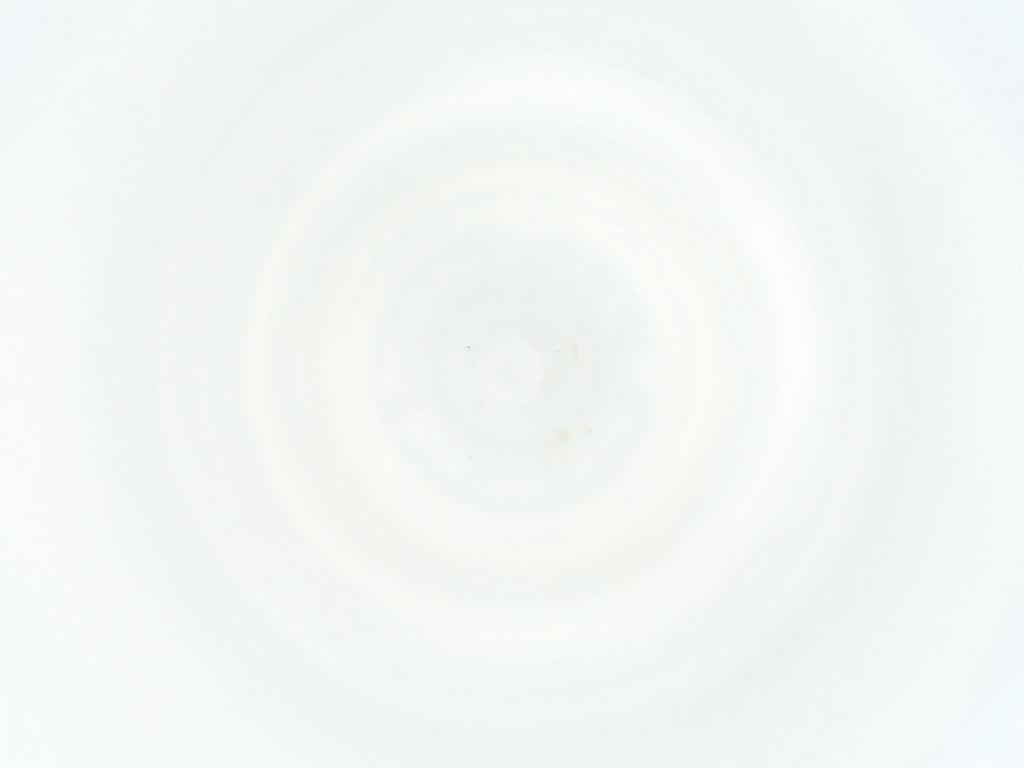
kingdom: Animalia
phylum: Arthropoda
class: Arachnida
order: Mesostigmata
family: Phytoseiidae
